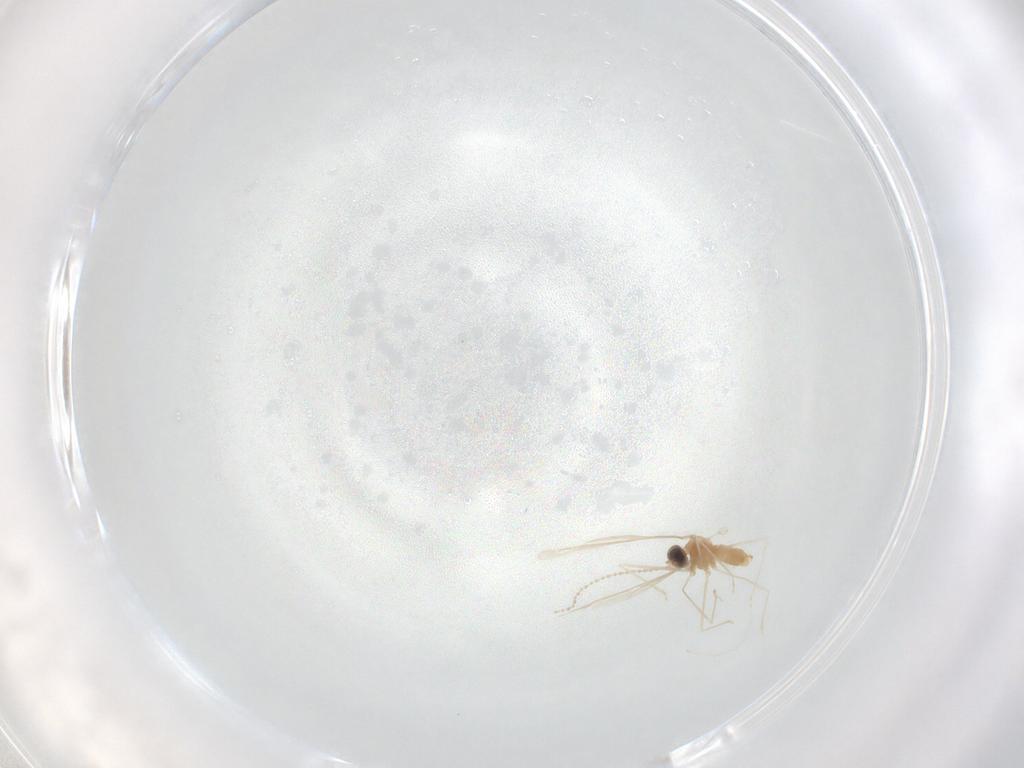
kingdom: Animalia
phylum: Arthropoda
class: Insecta
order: Diptera
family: Cecidomyiidae
